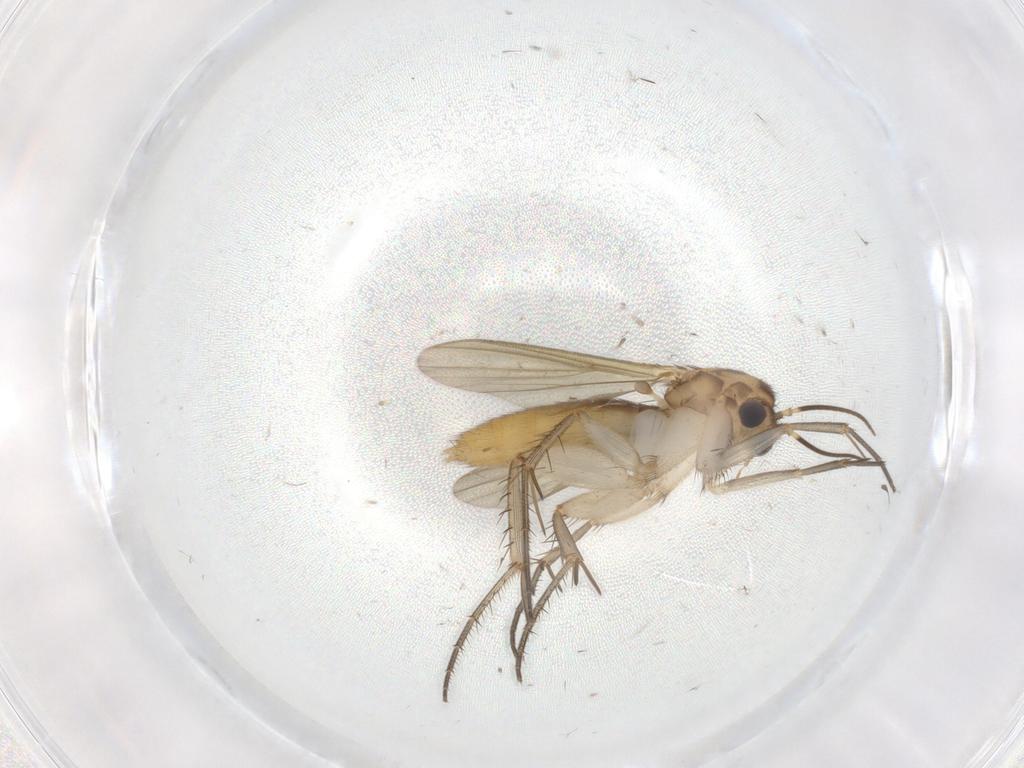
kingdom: Animalia
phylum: Arthropoda
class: Insecta
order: Diptera
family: Mycetophilidae
